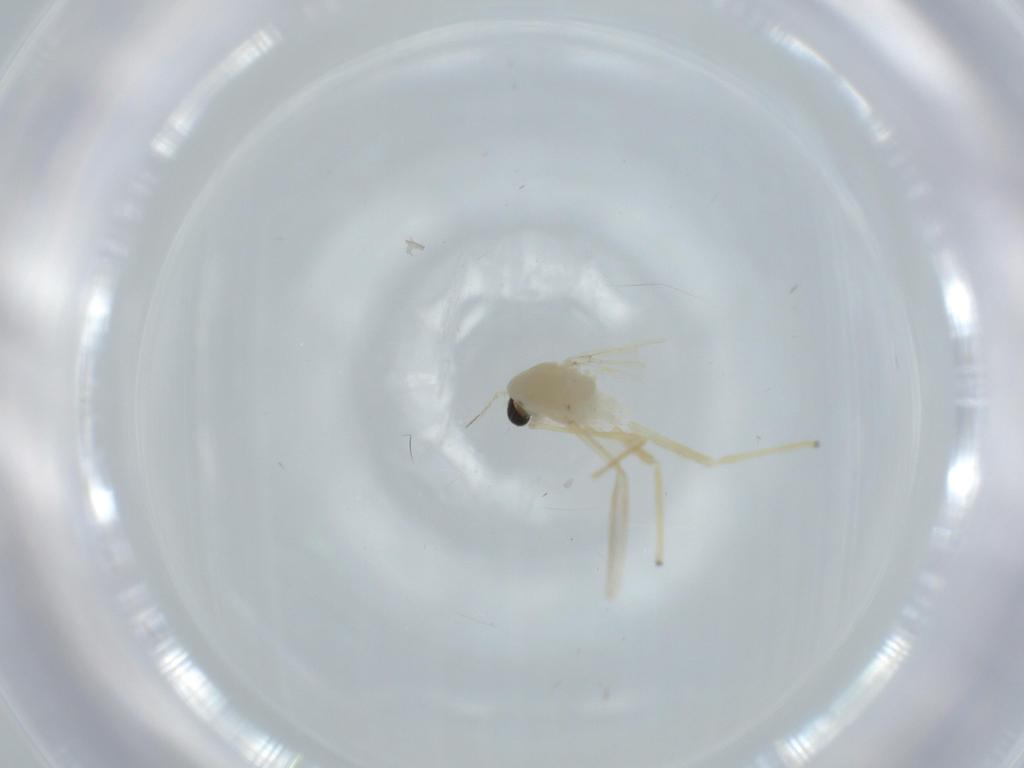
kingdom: Animalia
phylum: Arthropoda
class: Insecta
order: Diptera
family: Chironomidae
